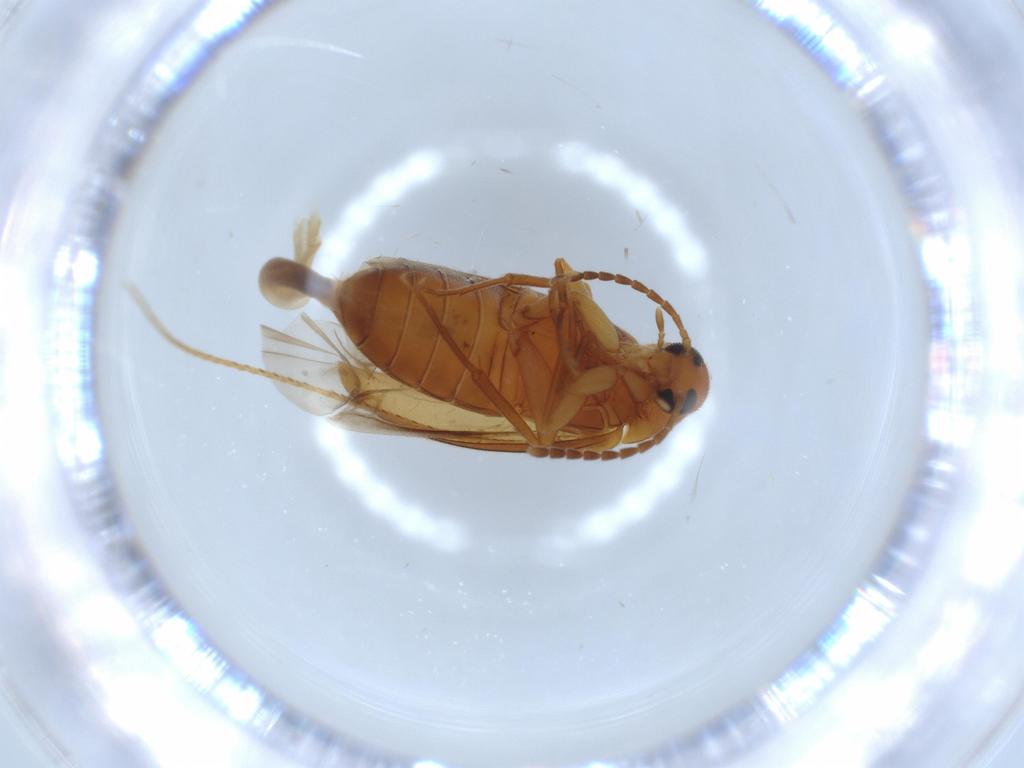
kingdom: Animalia
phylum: Arthropoda
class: Insecta
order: Coleoptera
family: Scraptiidae
